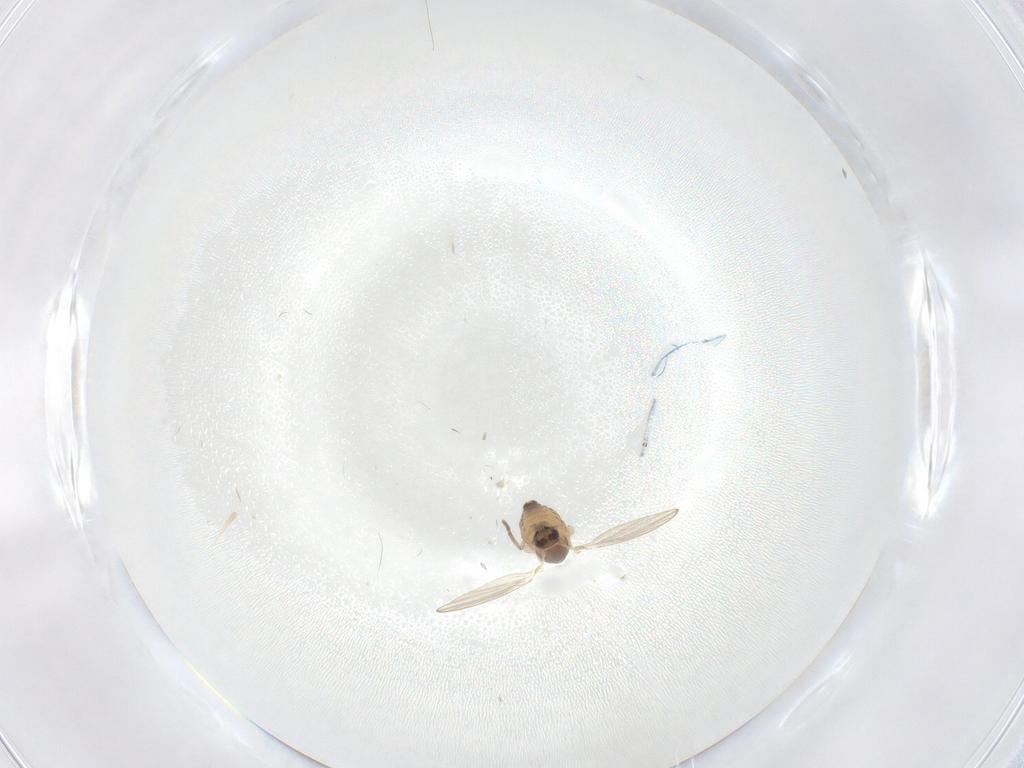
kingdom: Animalia
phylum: Arthropoda
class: Insecta
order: Diptera
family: Psychodidae
